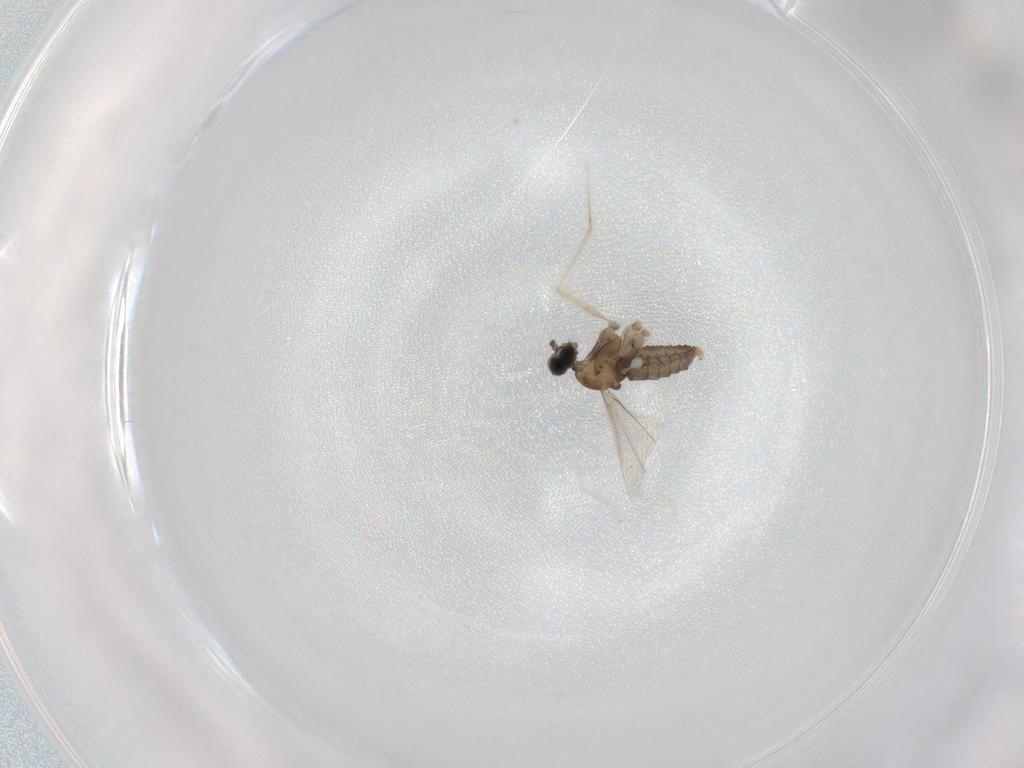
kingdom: Animalia
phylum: Arthropoda
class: Insecta
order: Diptera
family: Cecidomyiidae
